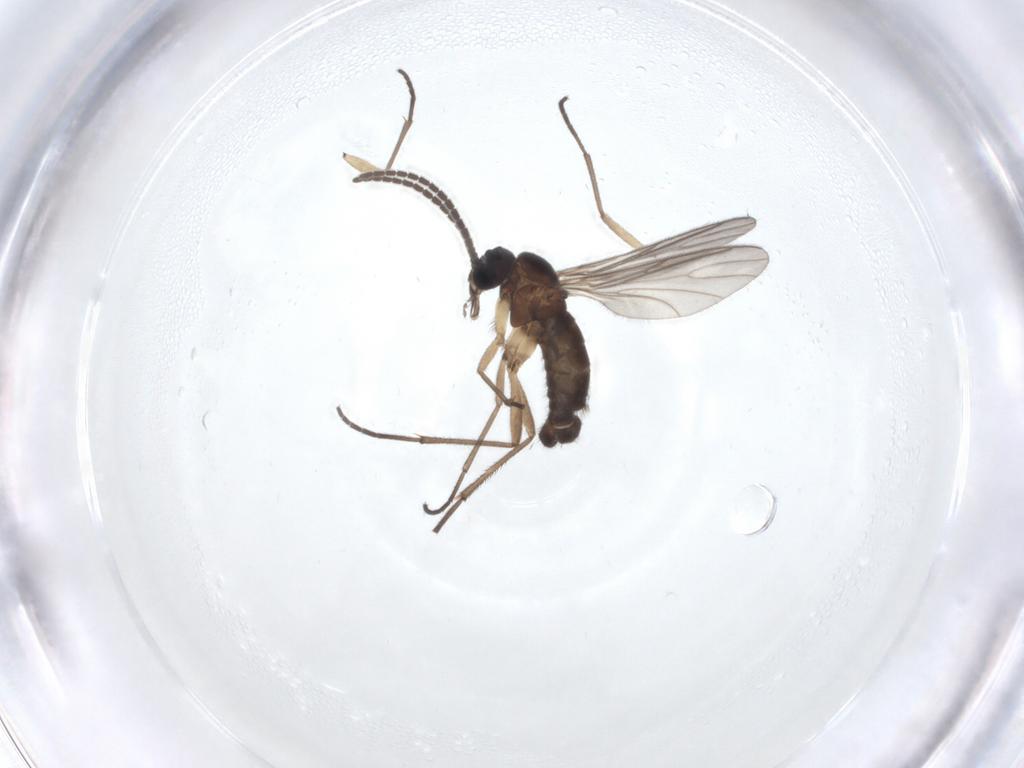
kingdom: Animalia
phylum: Arthropoda
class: Insecta
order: Diptera
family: Sciaridae
